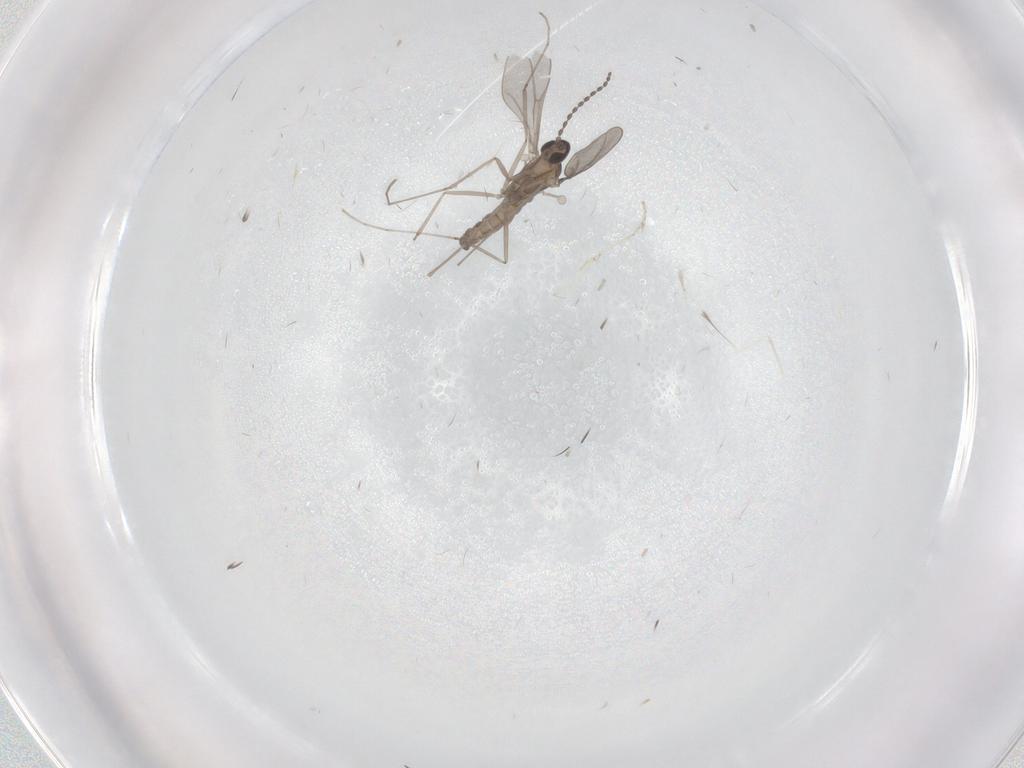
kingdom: Animalia
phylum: Arthropoda
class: Insecta
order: Diptera
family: Cecidomyiidae
